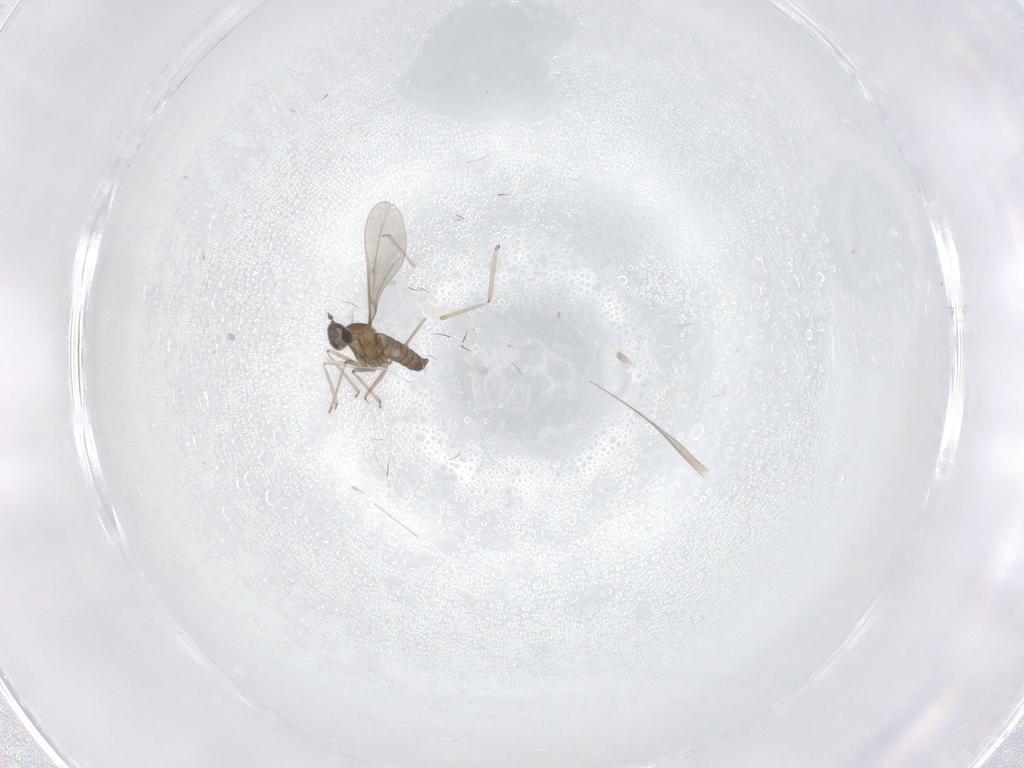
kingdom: Animalia
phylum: Arthropoda
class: Insecta
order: Diptera
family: Cecidomyiidae
